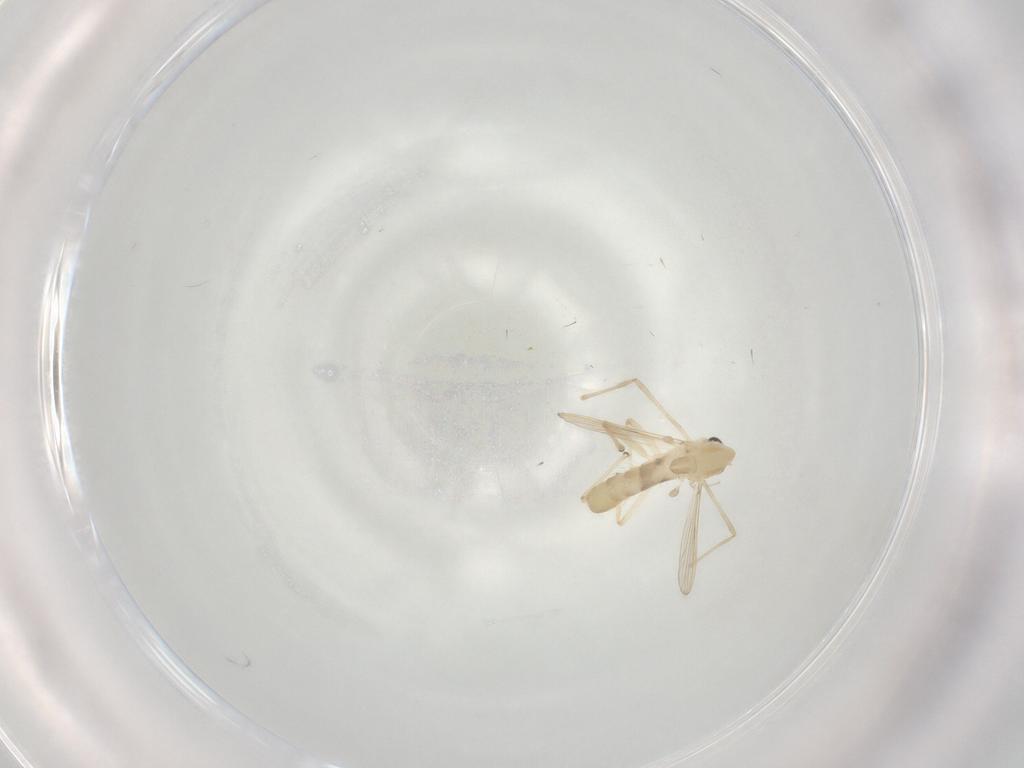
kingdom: Animalia
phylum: Arthropoda
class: Insecta
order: Diptera
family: Chironomidae
